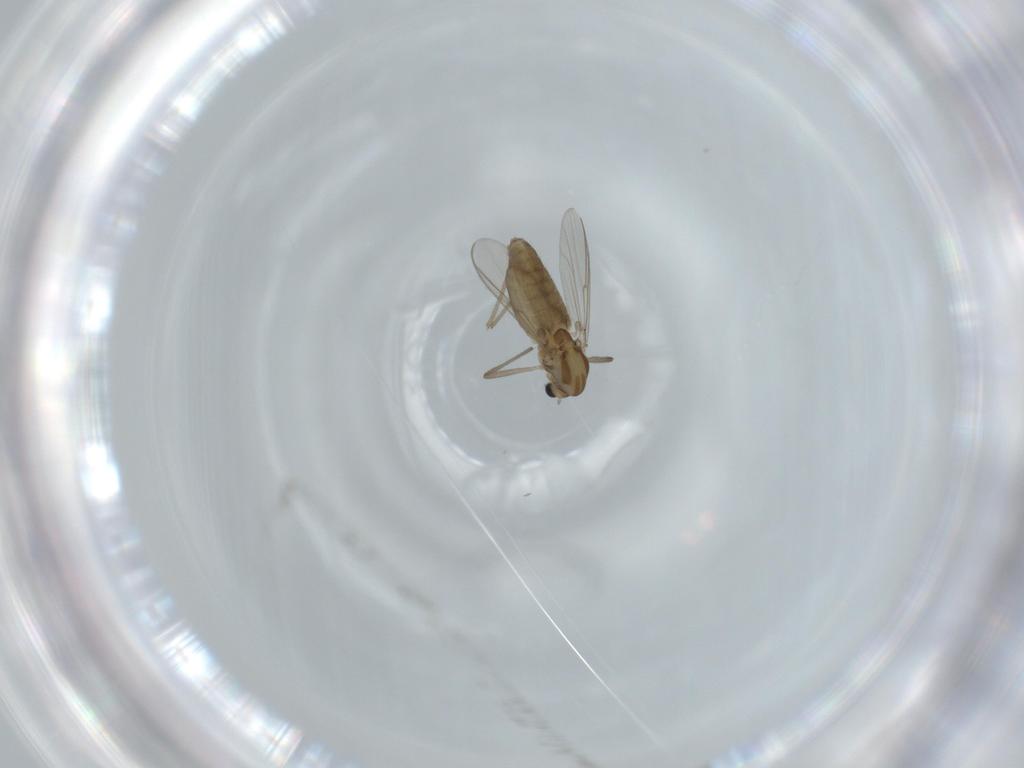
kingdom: Animalia
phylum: Arthropoda
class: Insecta
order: Diptera
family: Chironomidae
